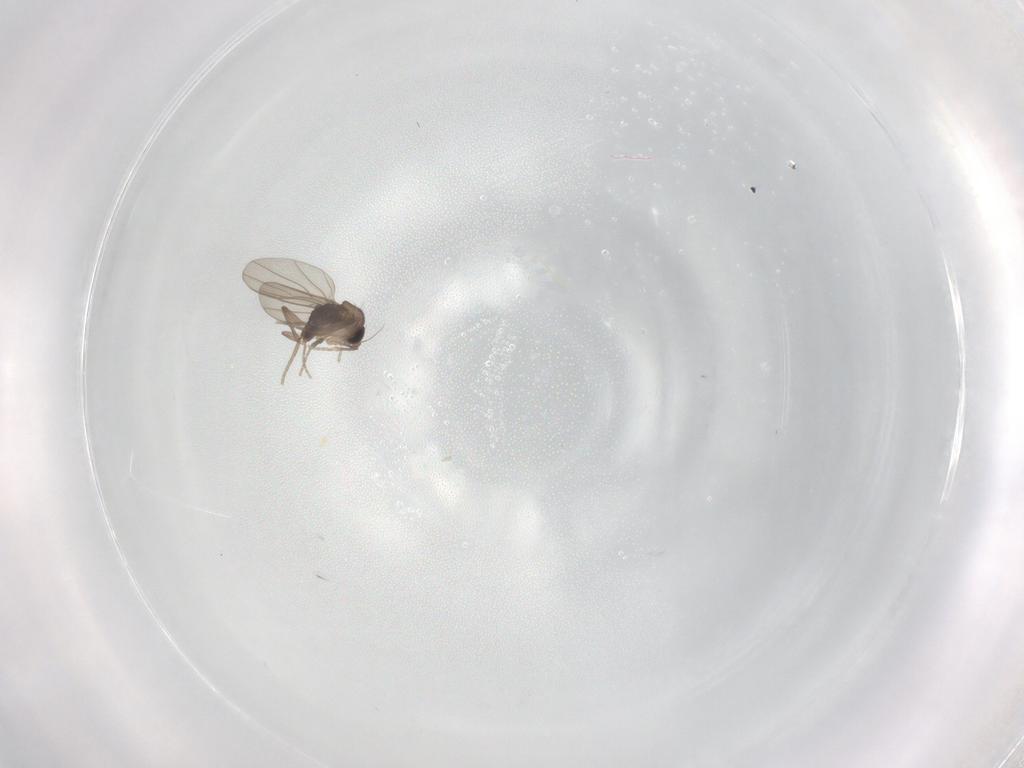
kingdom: Animalia
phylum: Arthropoda
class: Insecta
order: Diptera
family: Phoridae
